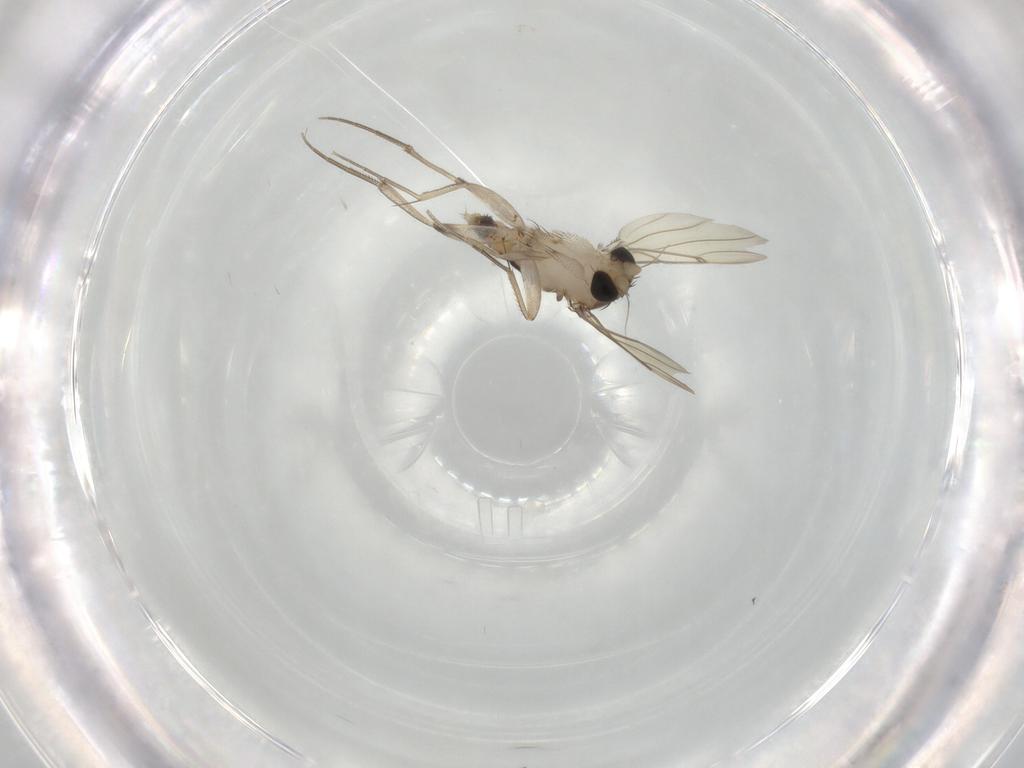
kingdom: Animalia
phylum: Arthropoda
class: Insecta
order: Diptera
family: Phoridae
